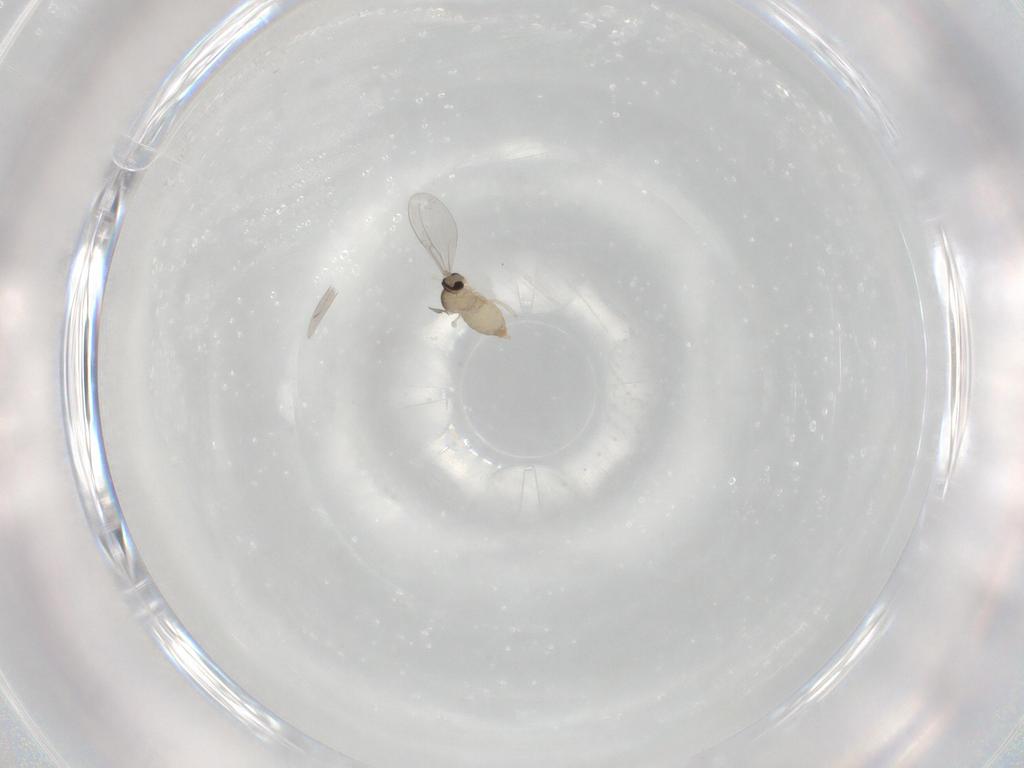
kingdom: Animalia
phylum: Arthropoda
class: Insecta
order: Diptera
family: Cecidomyiidae
